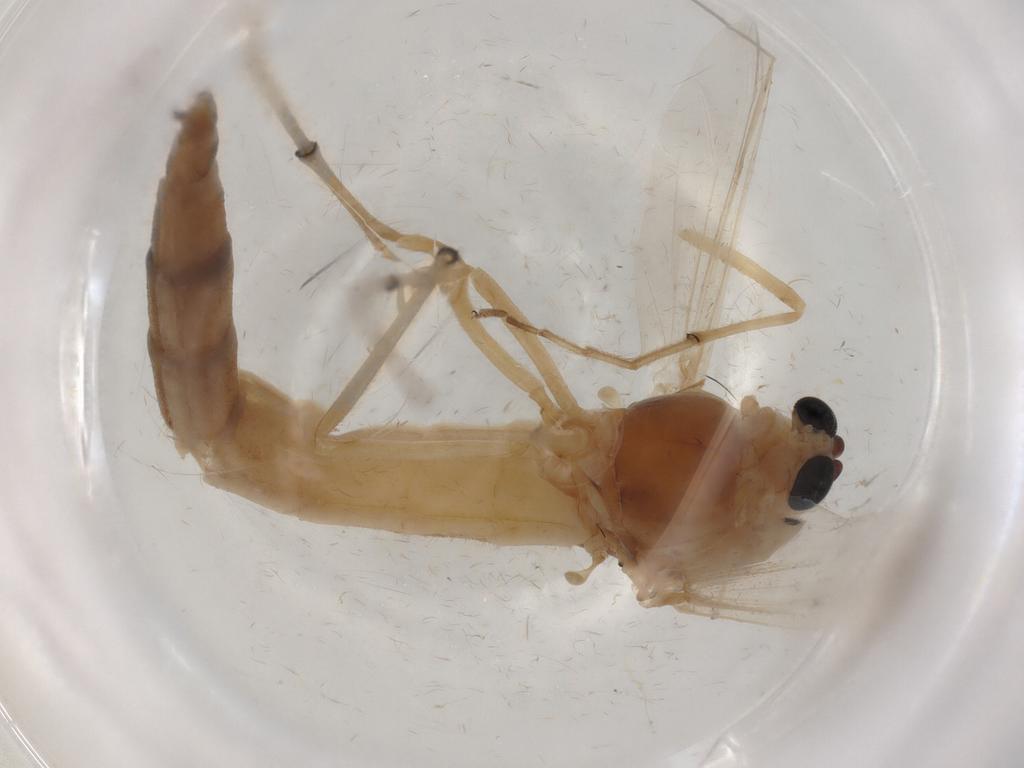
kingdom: Animalia
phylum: Arthropoda
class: Insecta
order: Diptera
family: Chironomidae
